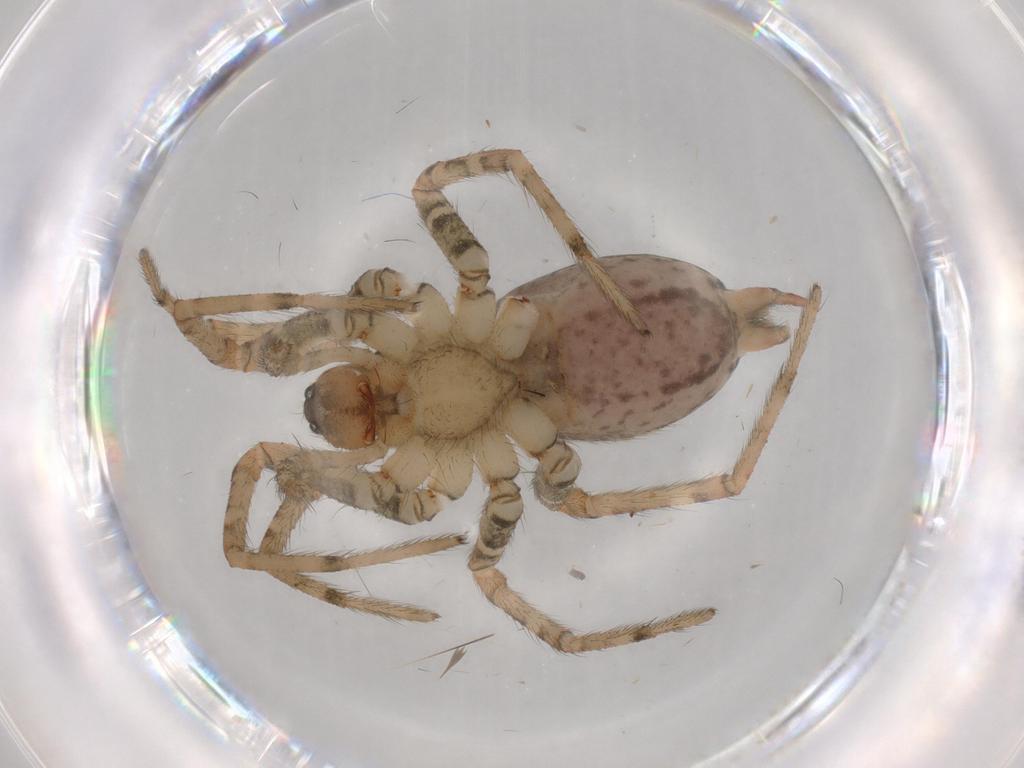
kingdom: Animalia
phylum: Arthropoda
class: Arachnida
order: Araneae
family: Agelenidae
